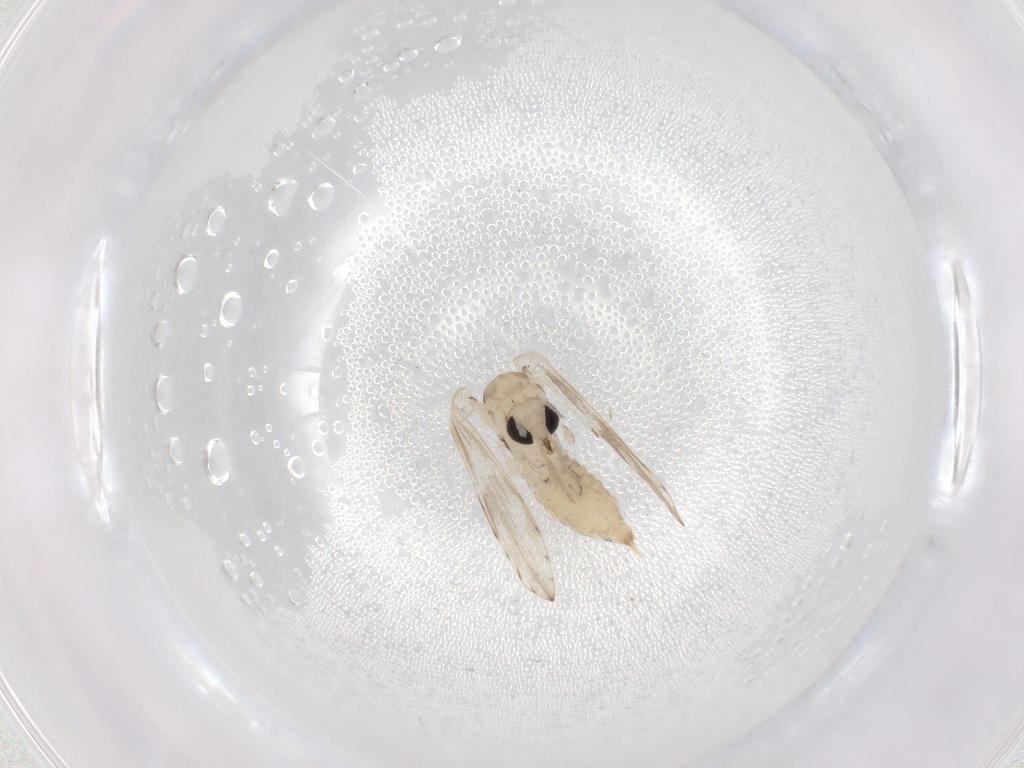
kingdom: Animalia
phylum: Arthropoda
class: Insecta
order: Diptera
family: Psychodidae
